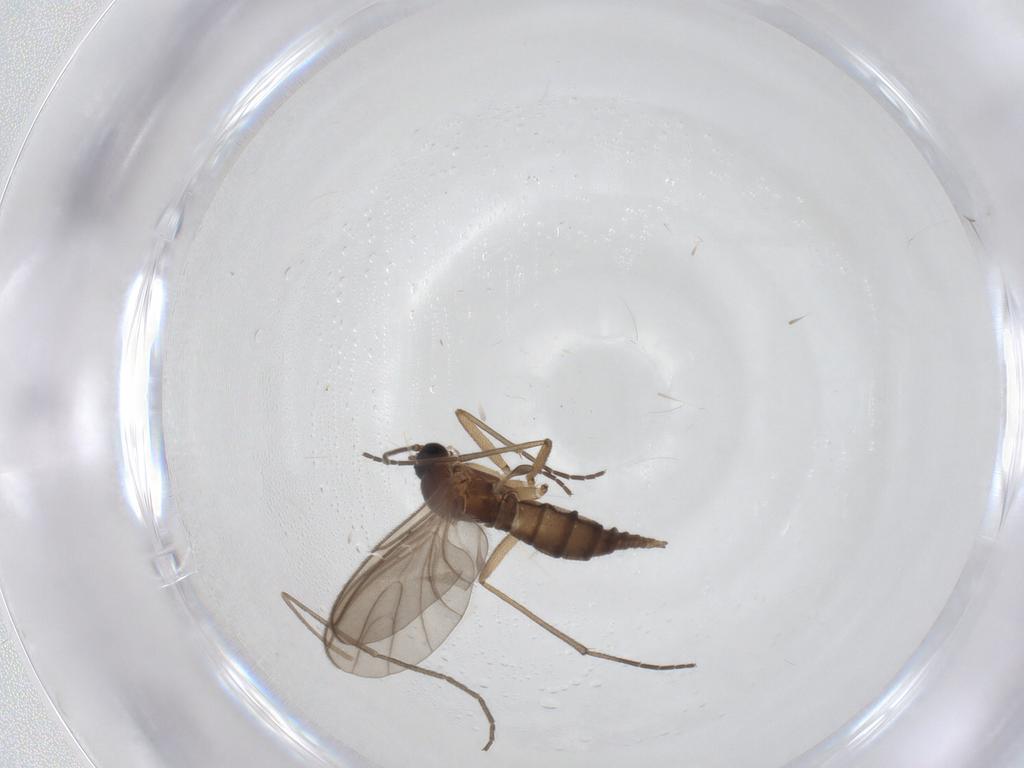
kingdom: Animalia
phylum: Arthropoda
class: Insecta
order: Diptera
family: Sciaridae
